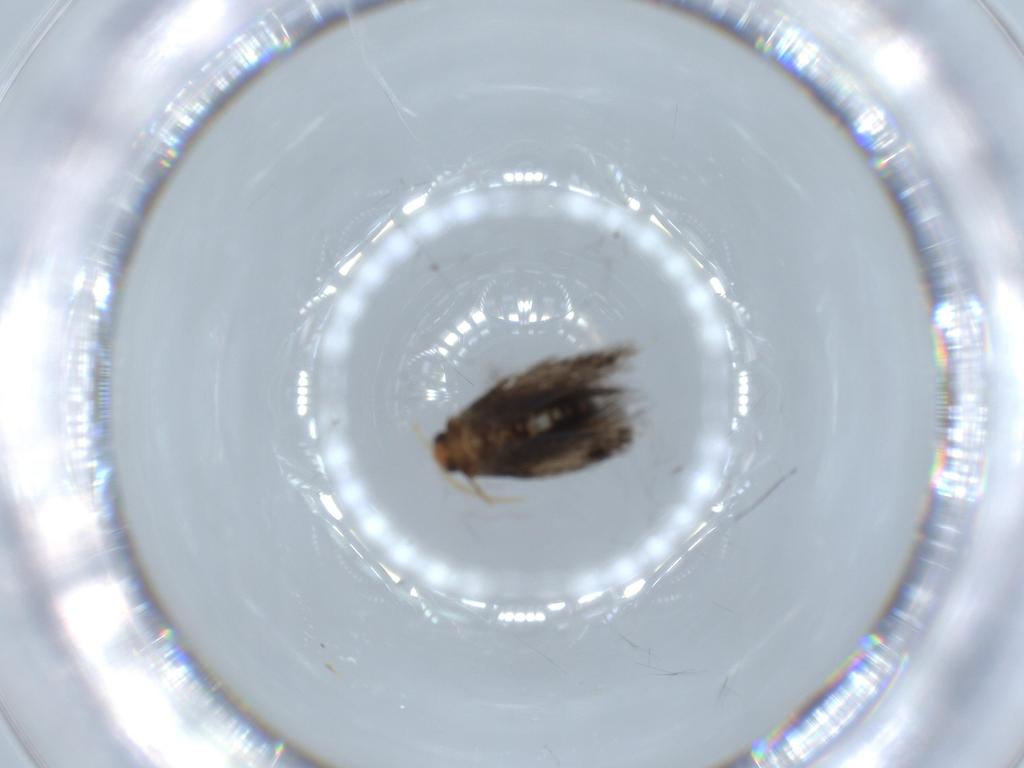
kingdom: Animalia
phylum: Arthropoda
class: Insecta
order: Lepidoptera
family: Nepticulidae
